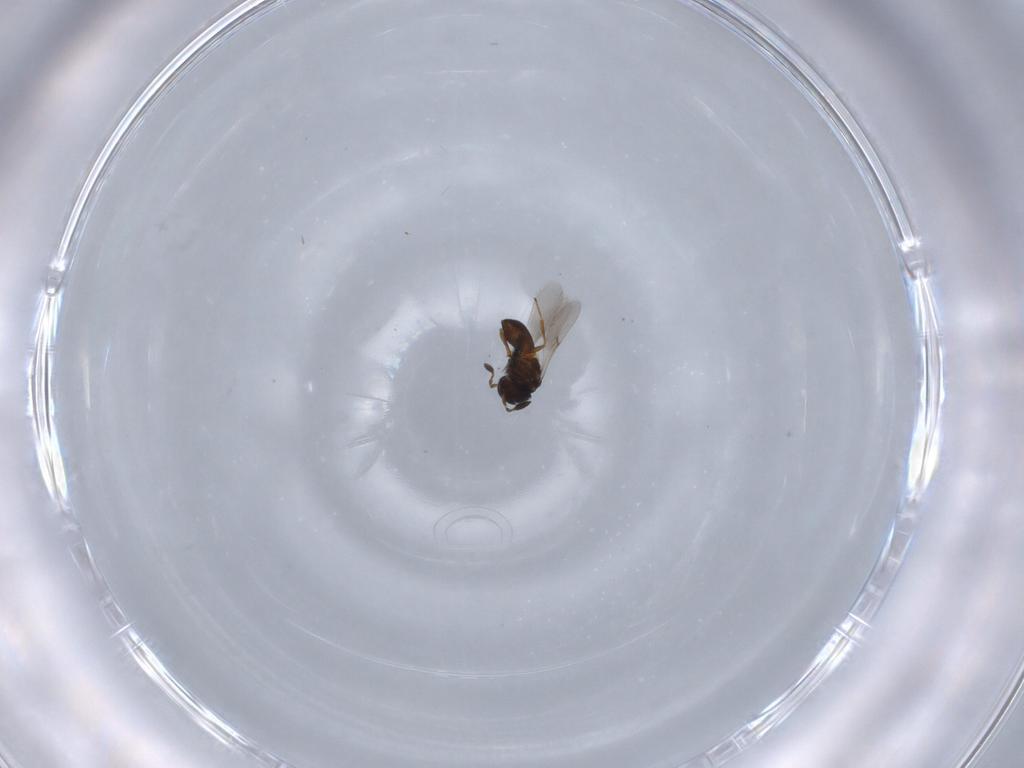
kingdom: Animalia
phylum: Arthropoda
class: Insecta
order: Hymenoptera
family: Scelionidae
